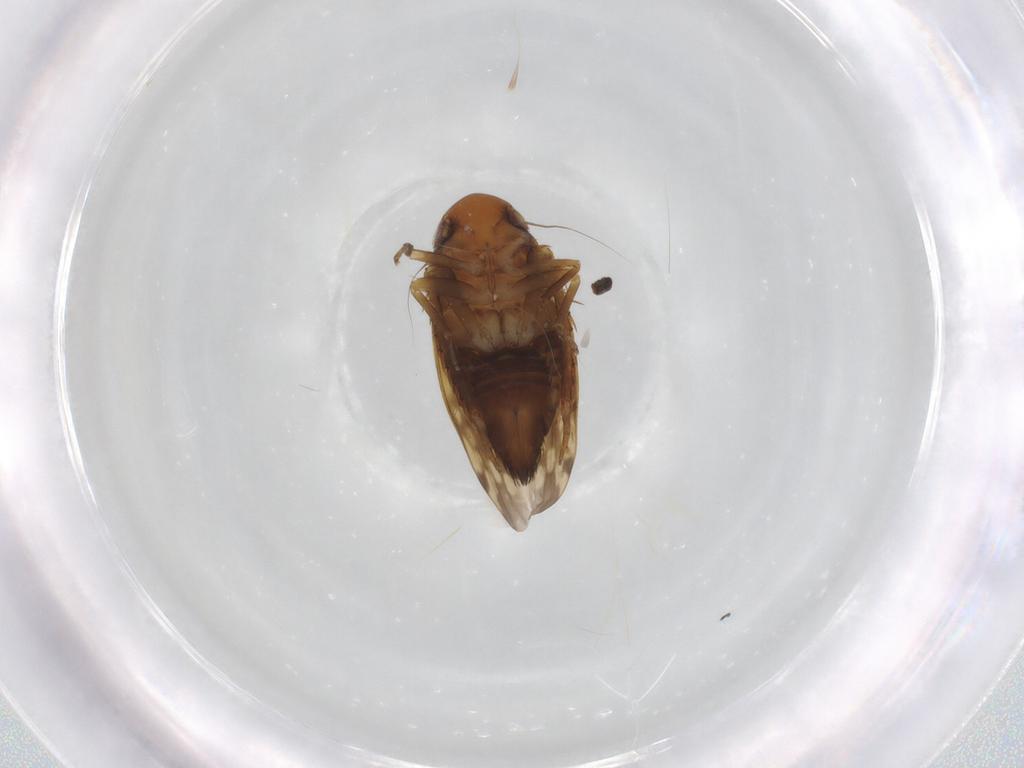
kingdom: Animalia
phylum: Arthropoda
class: Insecta
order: Hemiptera
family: Cicadellidae
